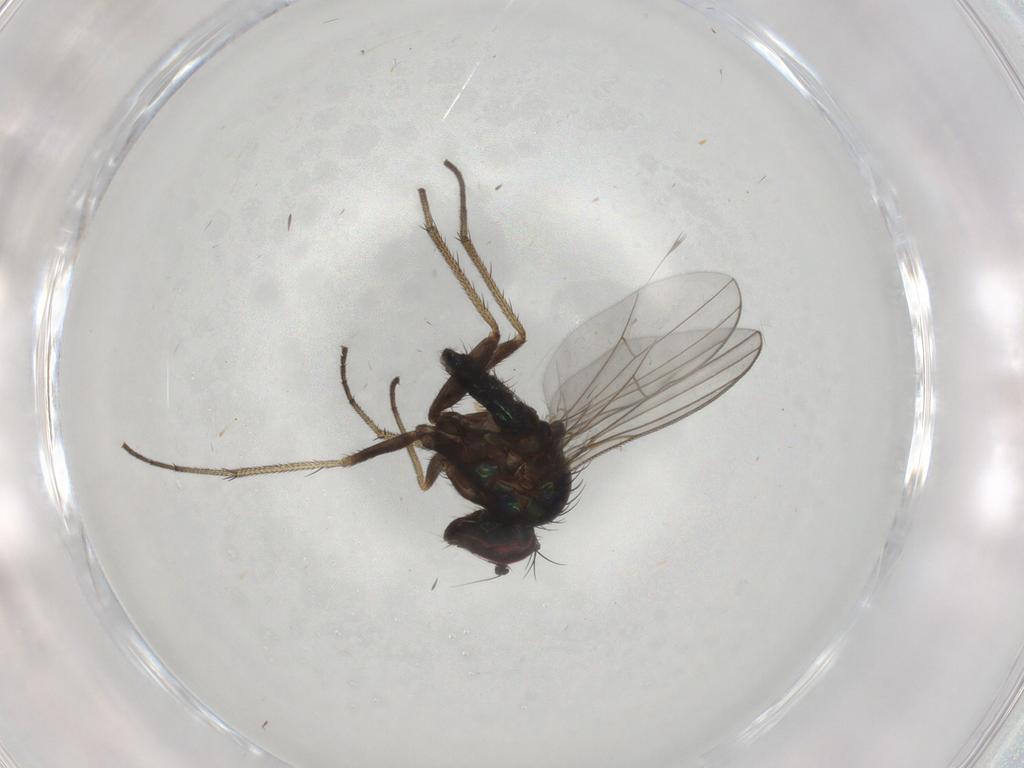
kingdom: Animalia
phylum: Arthropoda
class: Insecta
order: Diptera
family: Dolichopodidae
